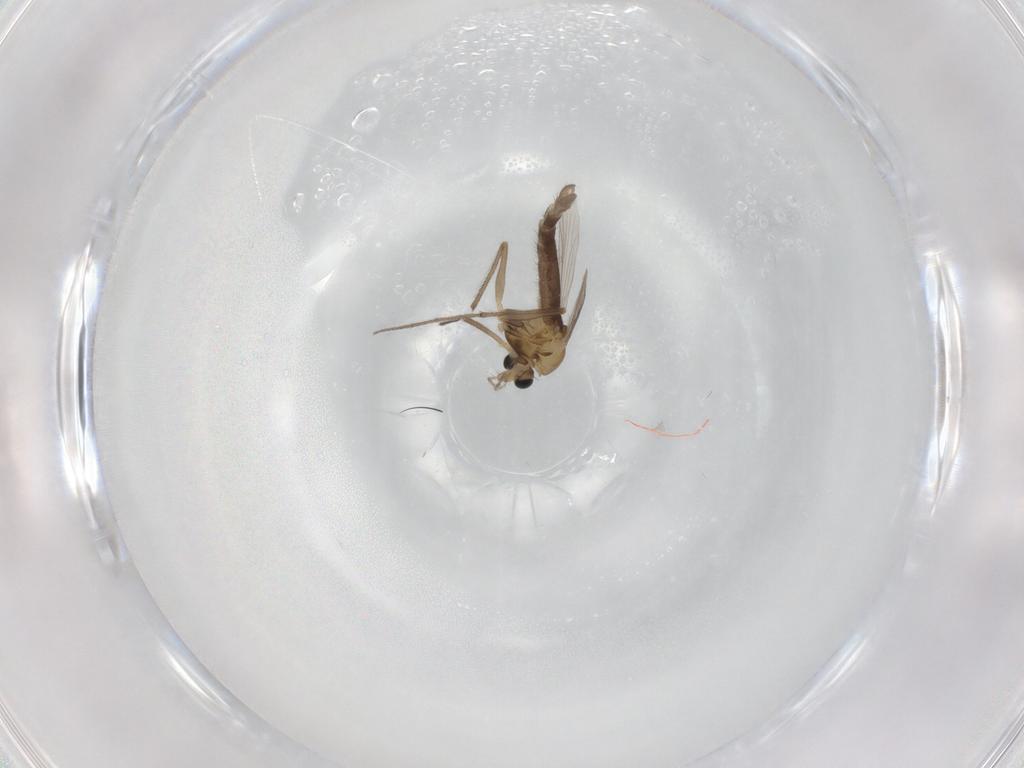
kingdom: Animalia
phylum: Arthropoda
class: Insecta
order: Diptera
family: Chironomidae
